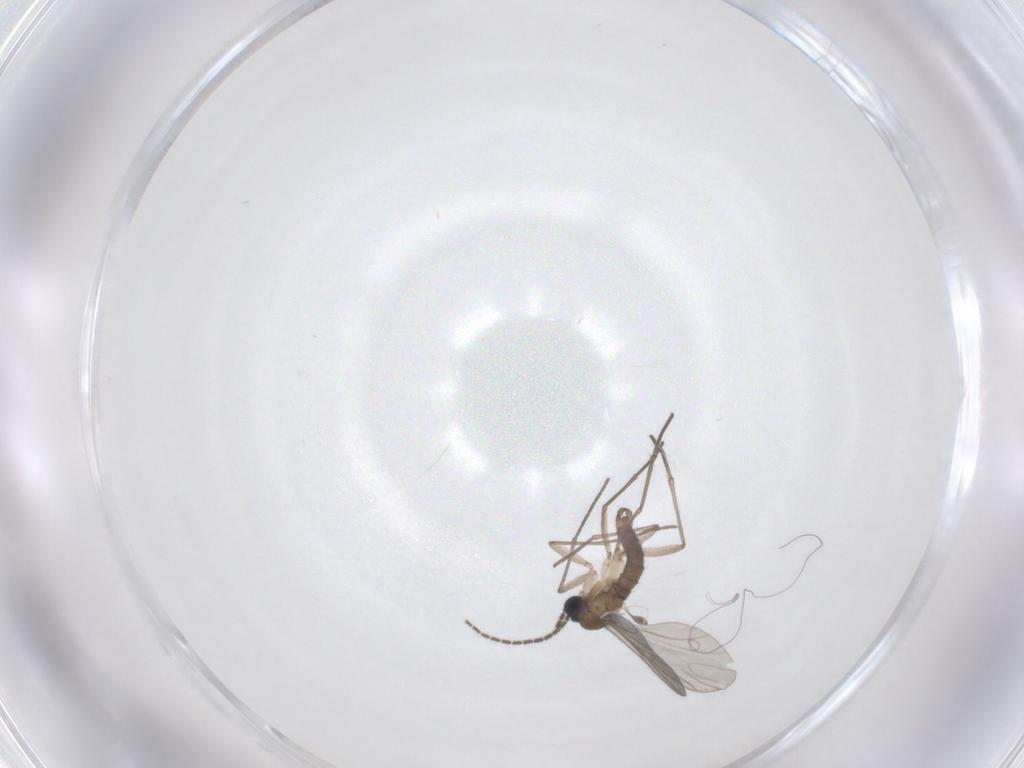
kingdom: Animalia
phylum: Arthropoda
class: Insecta
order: Diptera
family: Sciaridae
